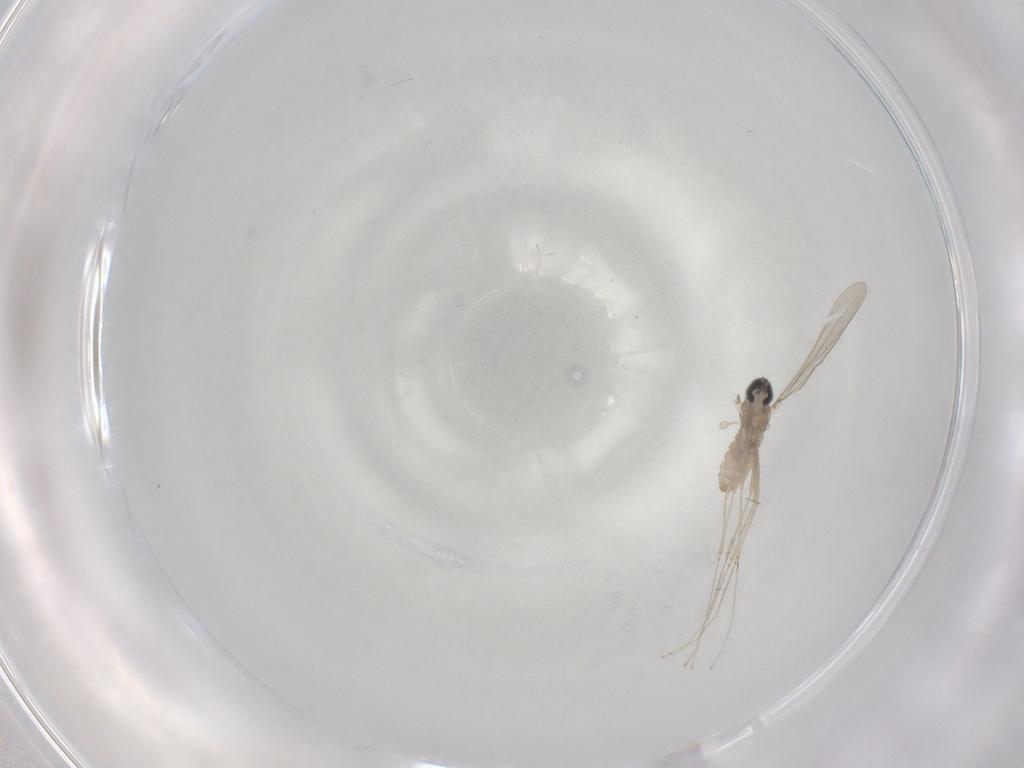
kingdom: Animalia
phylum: Arthropoda
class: Insecta
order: Diptera
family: Cecidomyiidae
